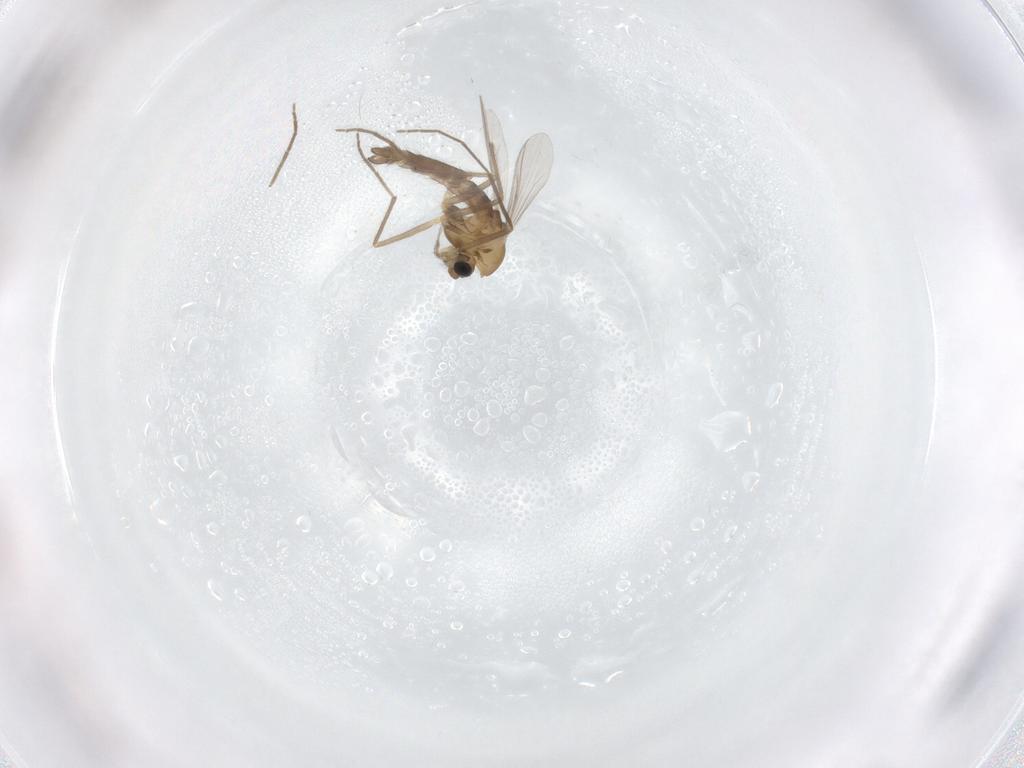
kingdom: Animalia
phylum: Arthropoda
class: Insecta
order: Diptera
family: Chironomidae
